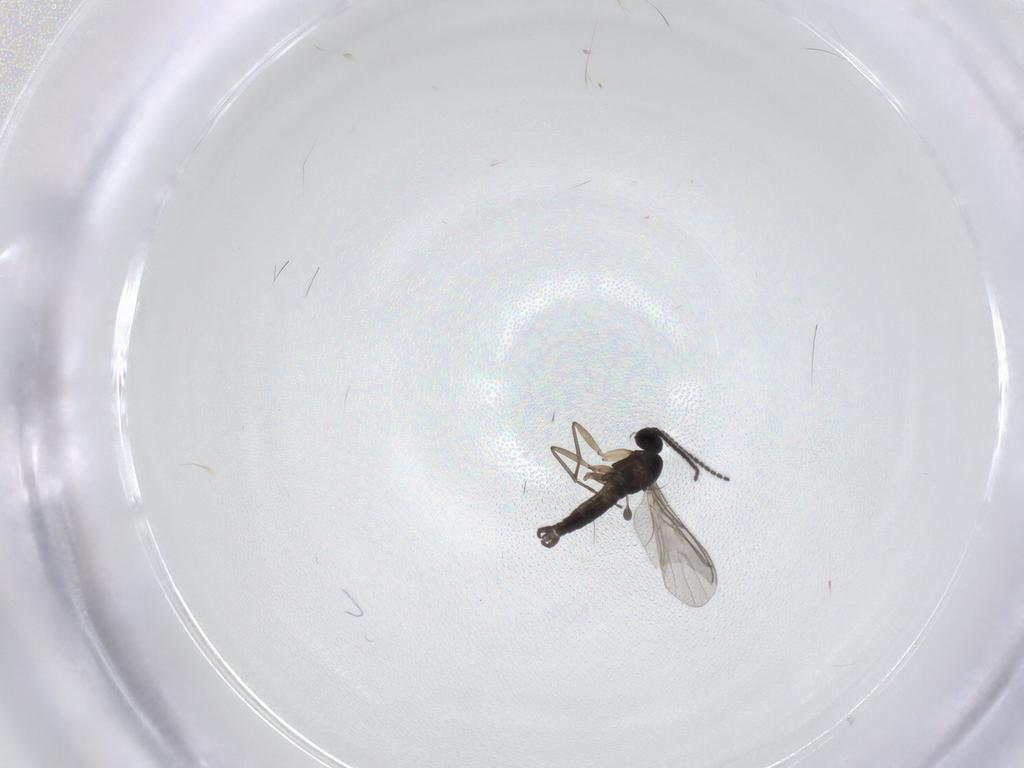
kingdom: Animalia
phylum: Arthropoda
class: Insecta
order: Diptera
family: Sciaridae
